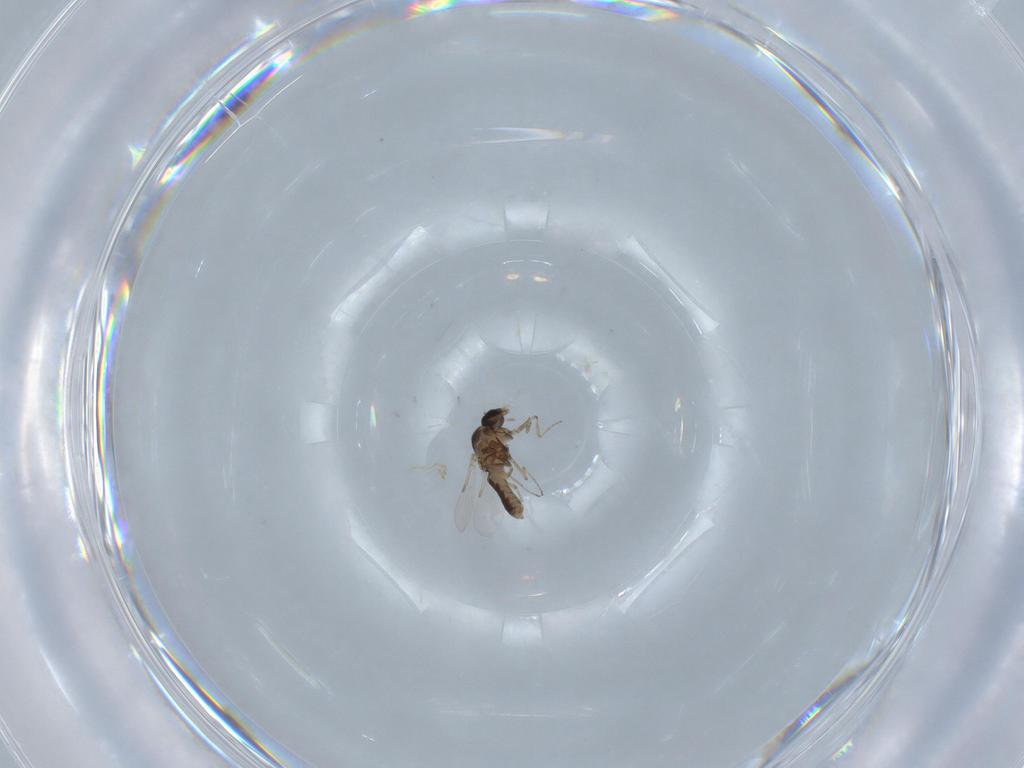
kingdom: Animalia
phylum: Arthropoda
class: Insecta
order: Diptera
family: Ceratopogonidae
